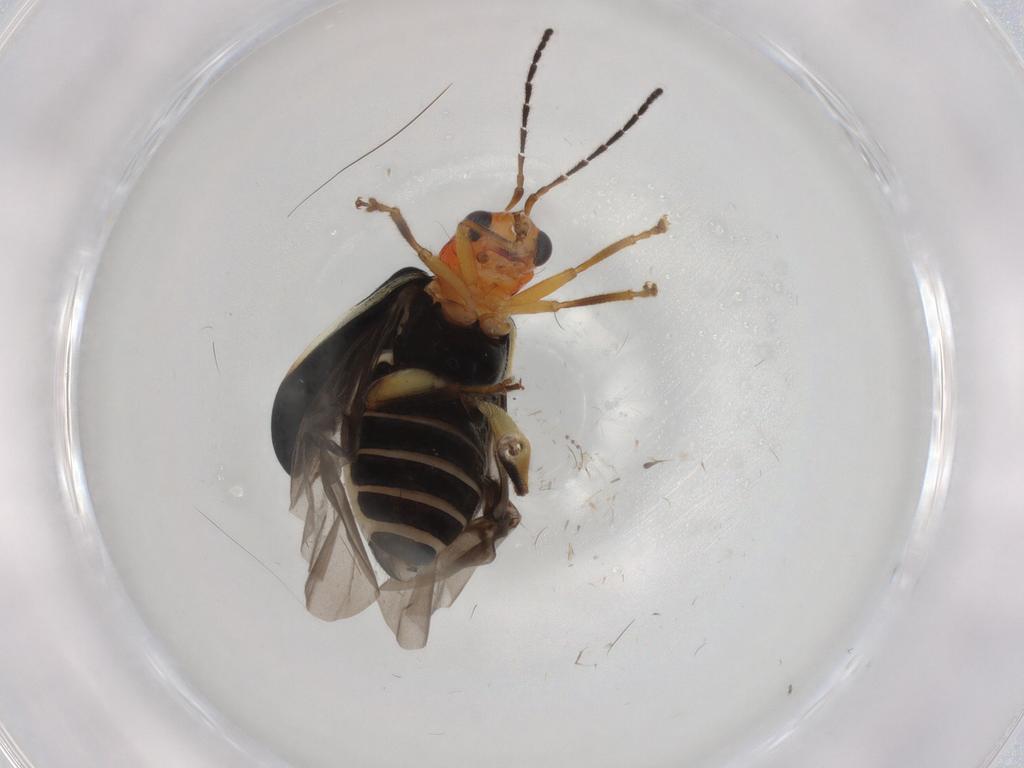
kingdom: Animalia
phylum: Arthropoda
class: Insecta
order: Coleoptera
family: Chrysomelidae
